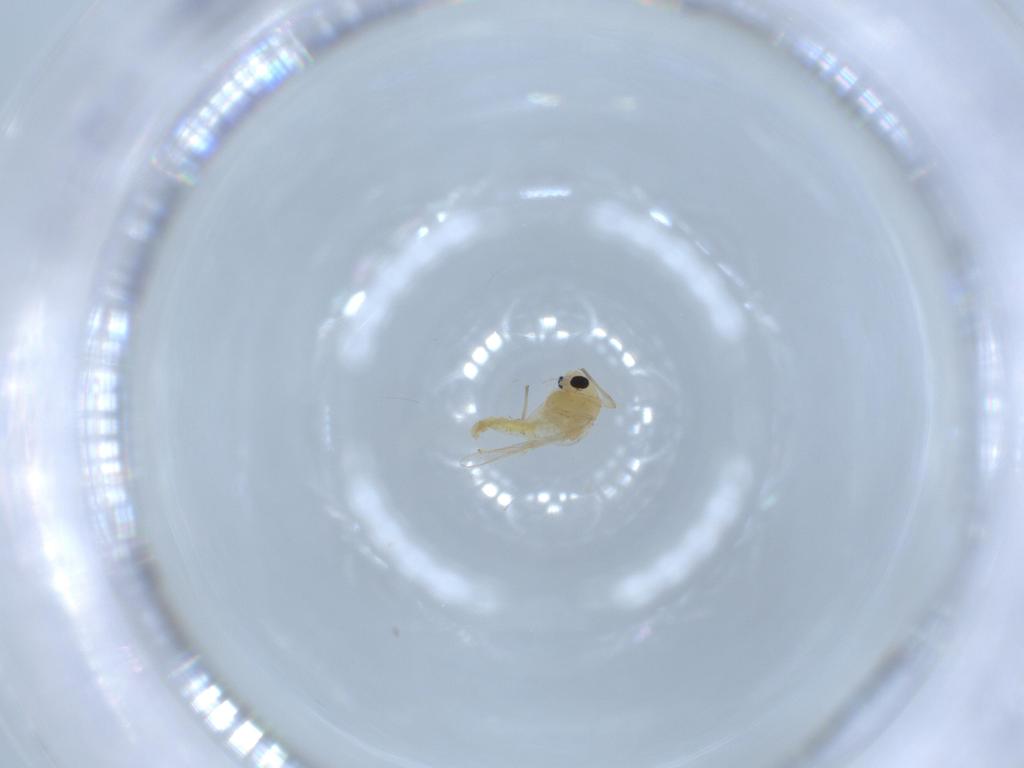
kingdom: Animalia
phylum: Arthropoda
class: Insecta
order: Diptera
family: Chironomidae
